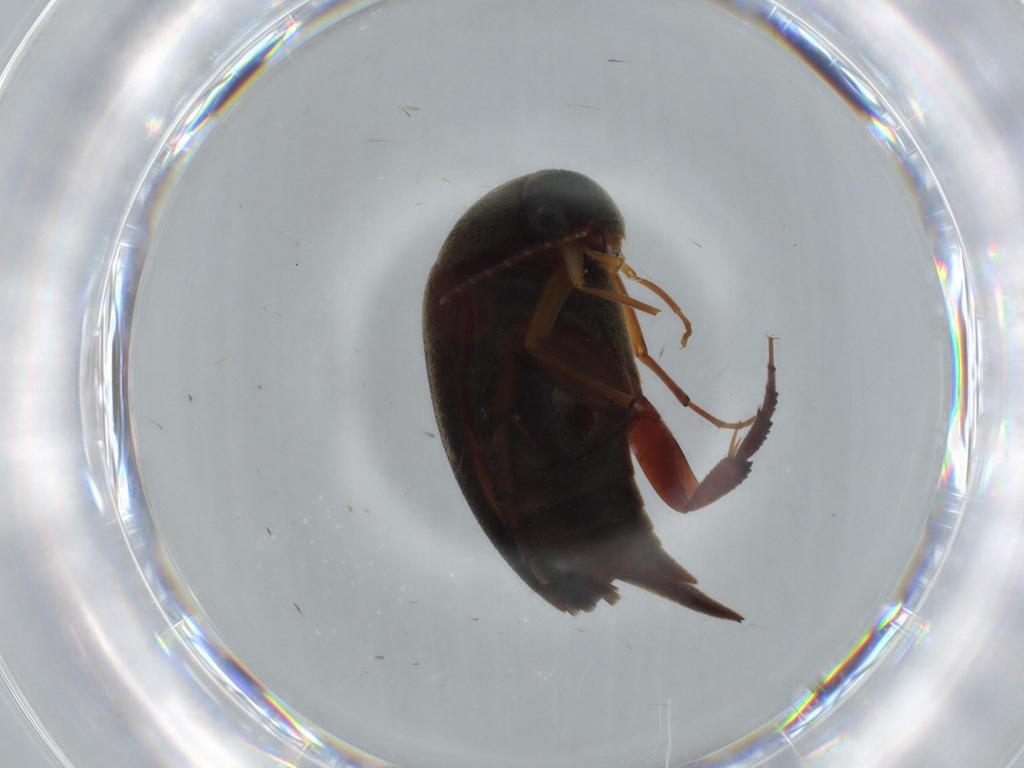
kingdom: Animalia
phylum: Arthropoda
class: Insecta
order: Coleoptera
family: Mordellidae
